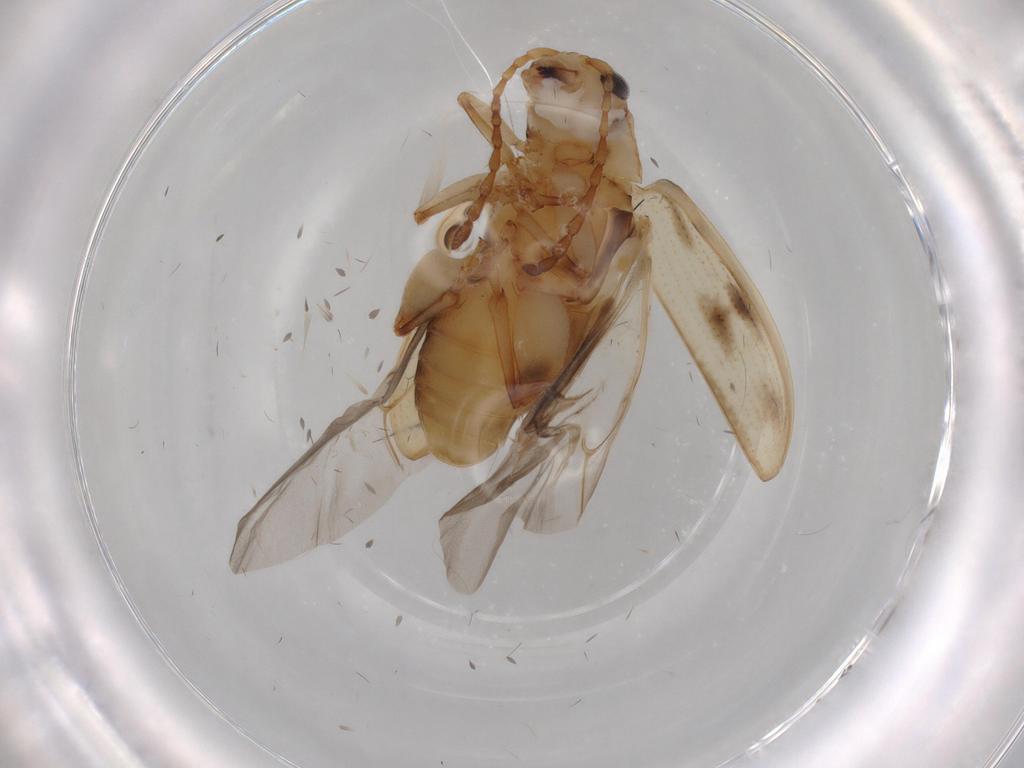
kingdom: Animalia
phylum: Arthropoda
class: Insecta
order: Coleoptera
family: Chrysomelidae
